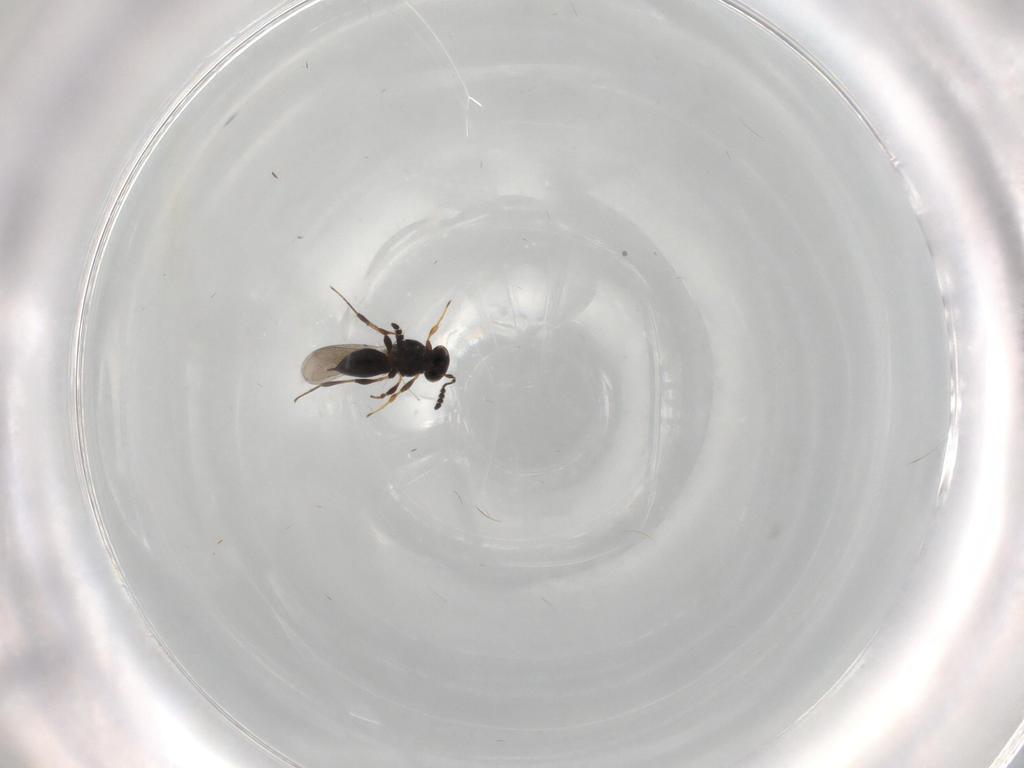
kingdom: Animalia
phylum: Arthropoda
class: Insecta
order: Hymenoptera
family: Platygastridae
